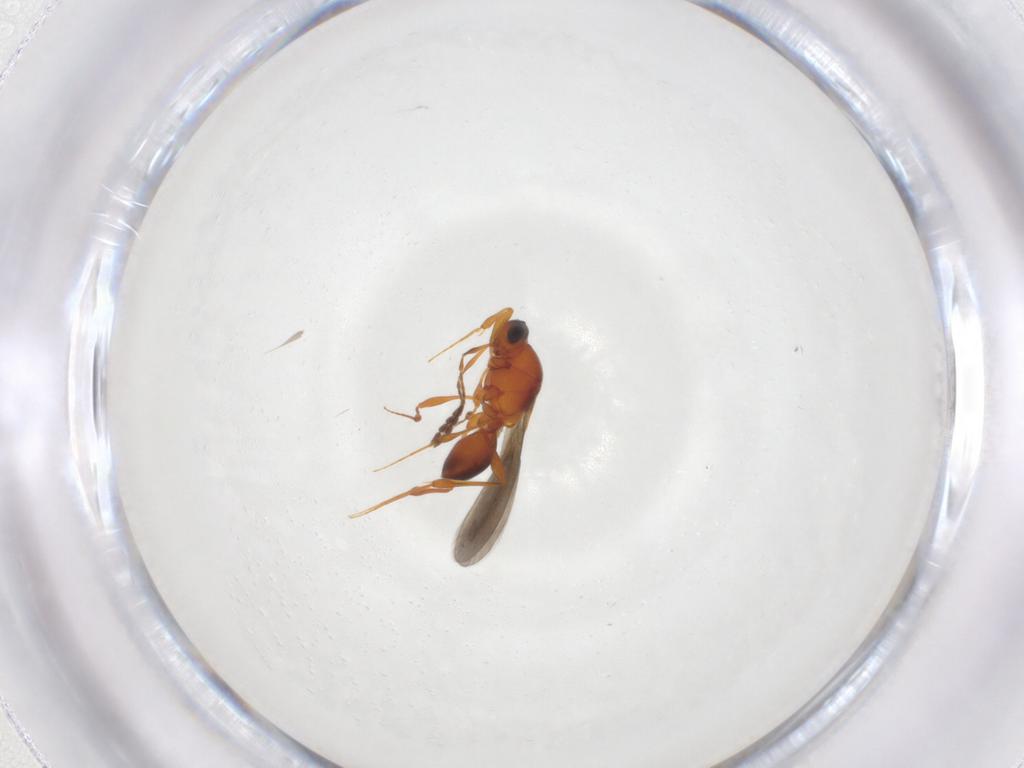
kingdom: Animalia
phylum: Arthropoda
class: Insecta
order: Hymenoptera
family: Platygastridae
